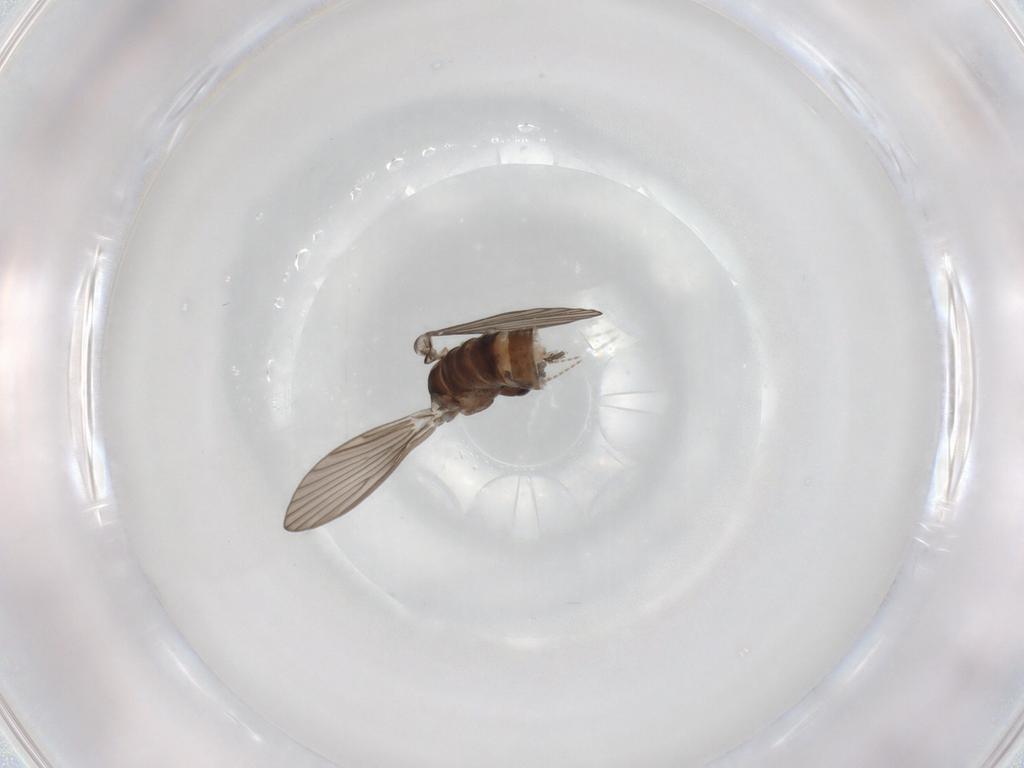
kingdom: Animalia
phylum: Arthropoda
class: Insecta
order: Diptera
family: Psychodidae
